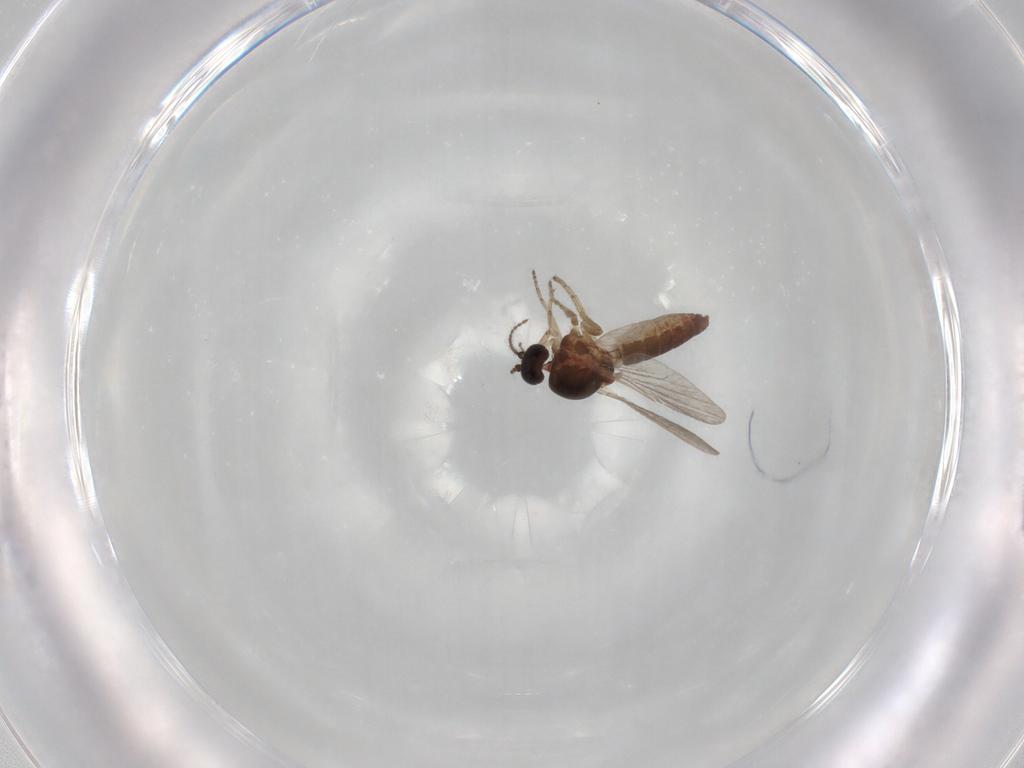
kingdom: Animalia
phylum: Arthropoda
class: Insecta
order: Diptera
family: Ceratopogonidae
